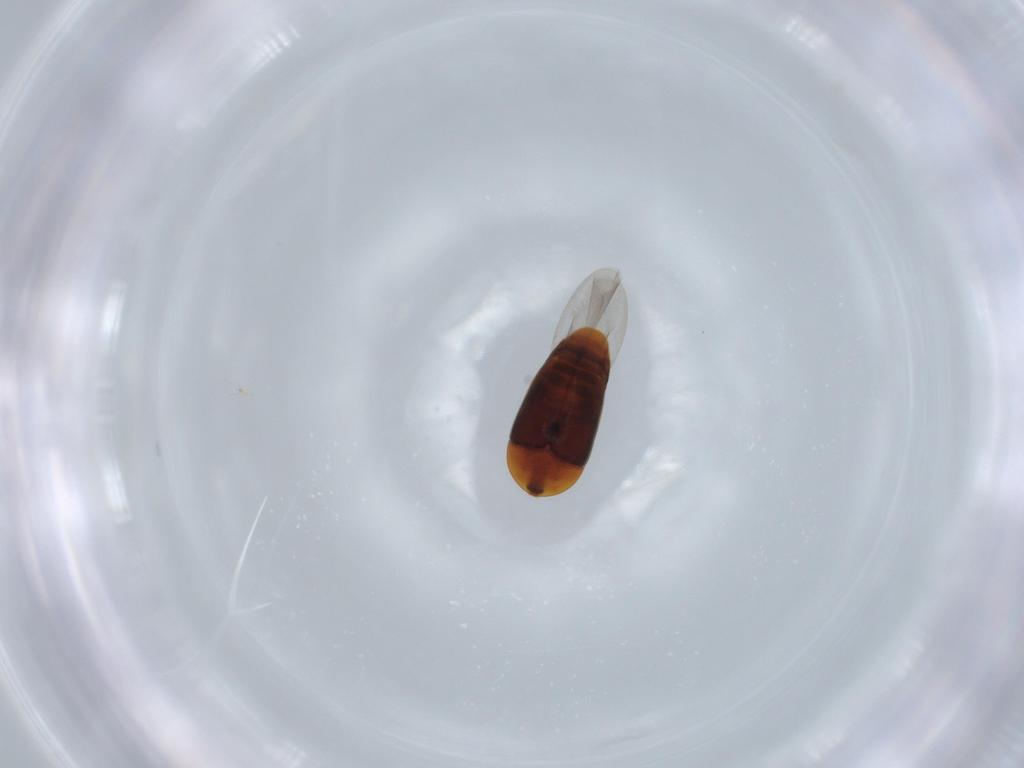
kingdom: Animalia
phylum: Arthropoda
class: Insecta
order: Coleoptera
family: Corylophidae
